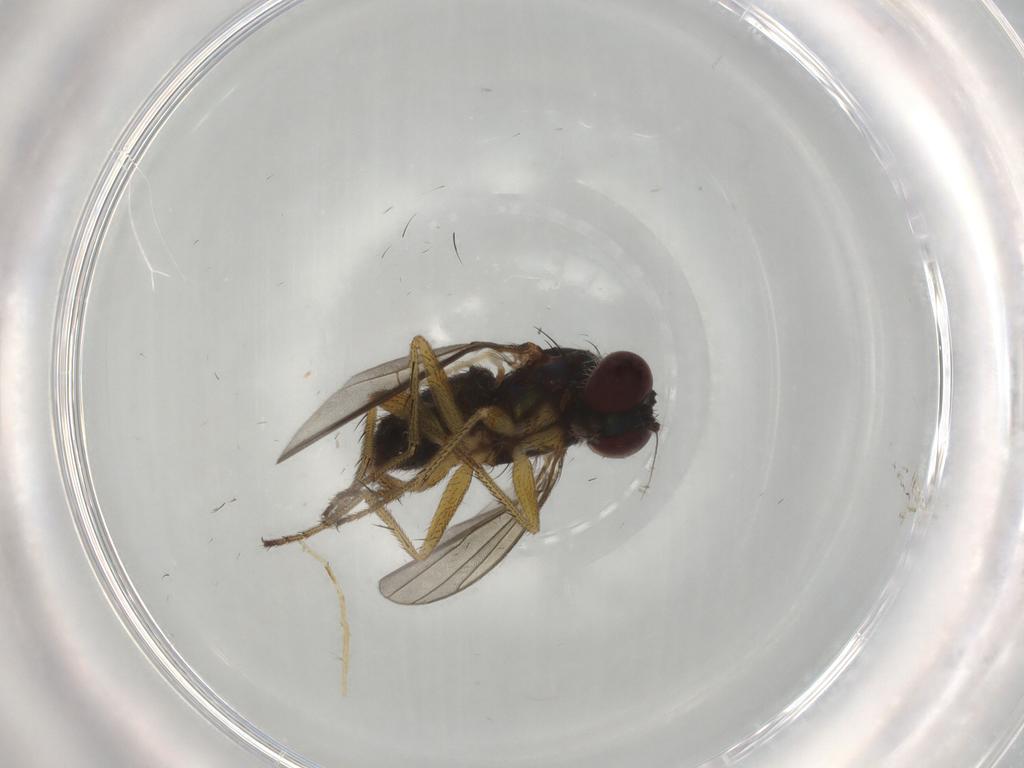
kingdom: Animalia
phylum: Arthropoda
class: Insecta
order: Diptera
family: Dolichopodidae
